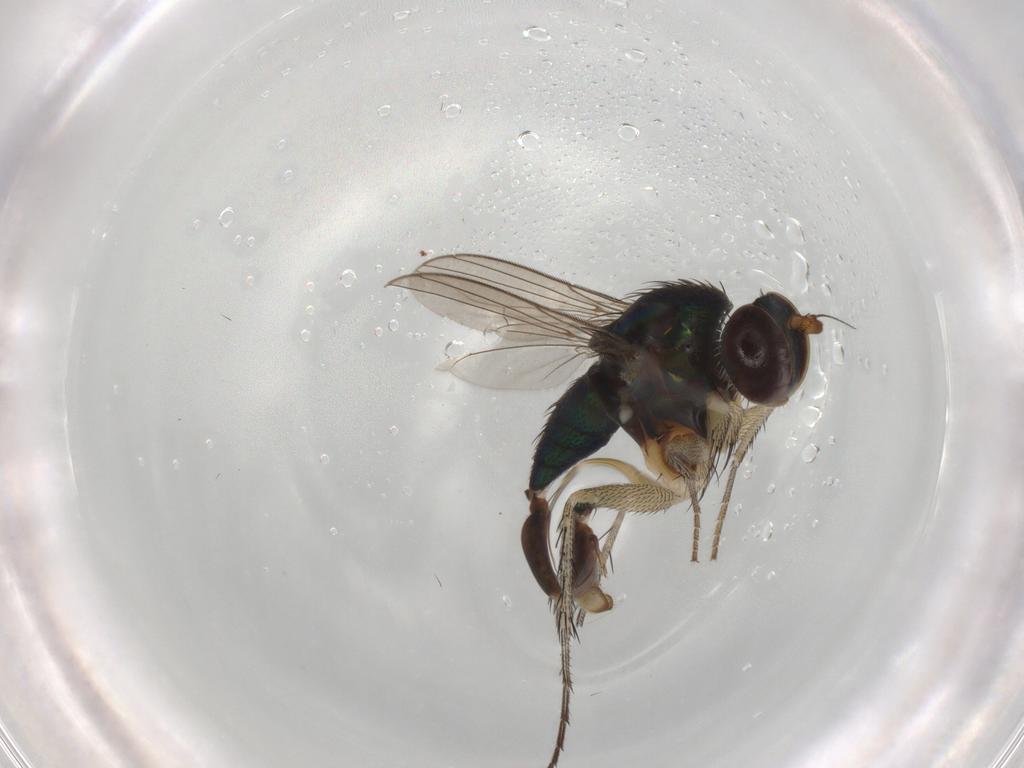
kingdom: Animalia
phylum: Arthropoda
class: Insecta
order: Diptera
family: Dolichopodidae
